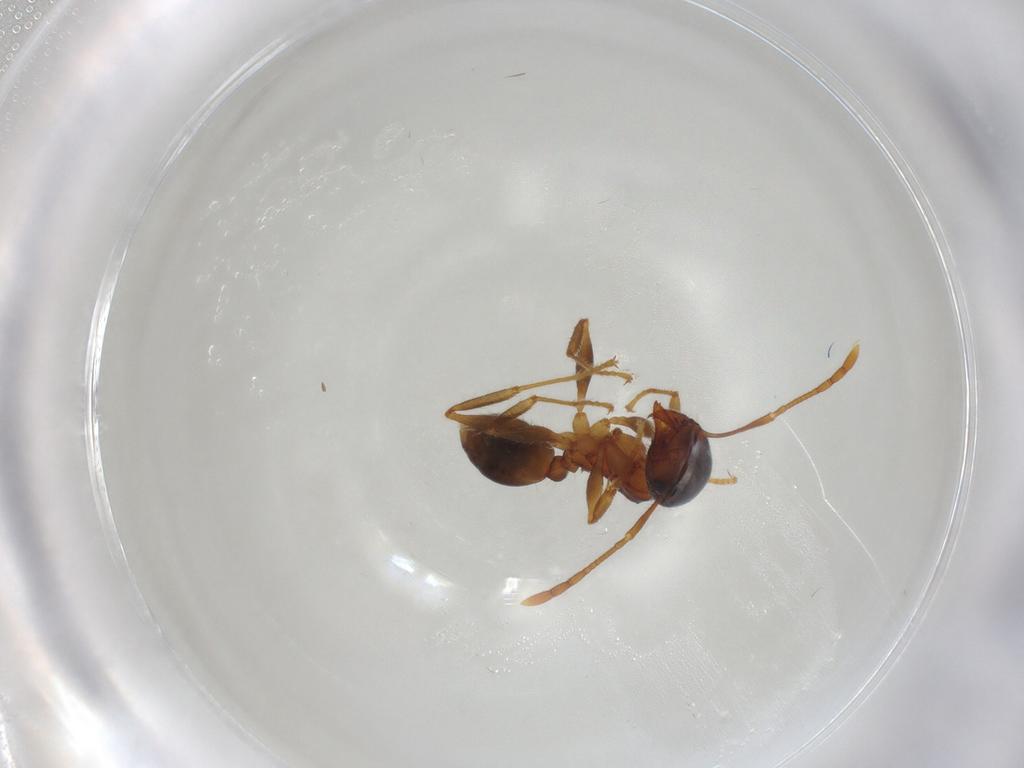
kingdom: Animalia
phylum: Arthropoda
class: Insecta
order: Hymenoptera
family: Formicidae
